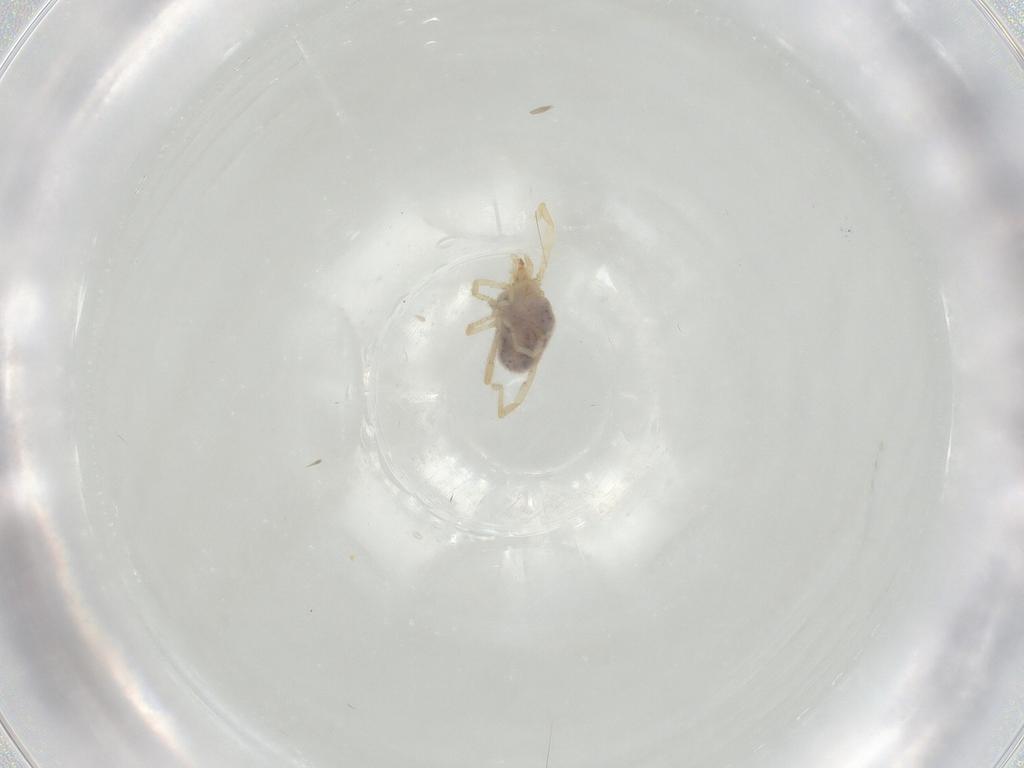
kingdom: Animalia
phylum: Arthropoda
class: Arachnida
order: Trombidiformes
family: Erythraeidae
